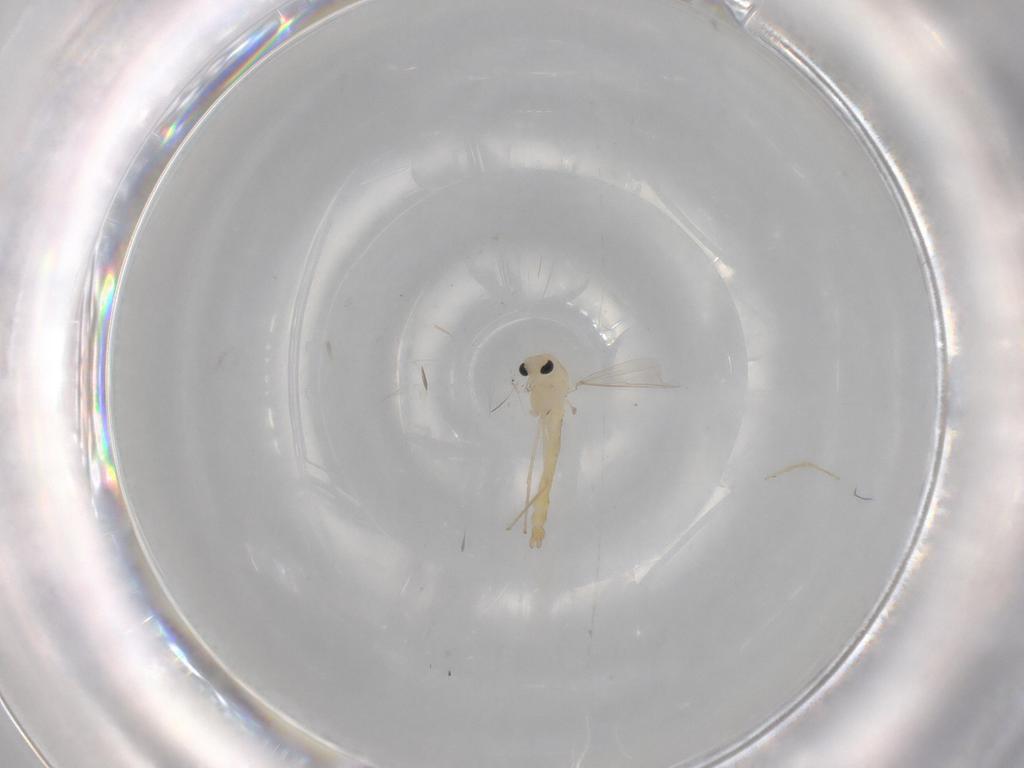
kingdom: Animalia
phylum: Arthropoda
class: Insecta
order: Diptera
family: Chironomidae
